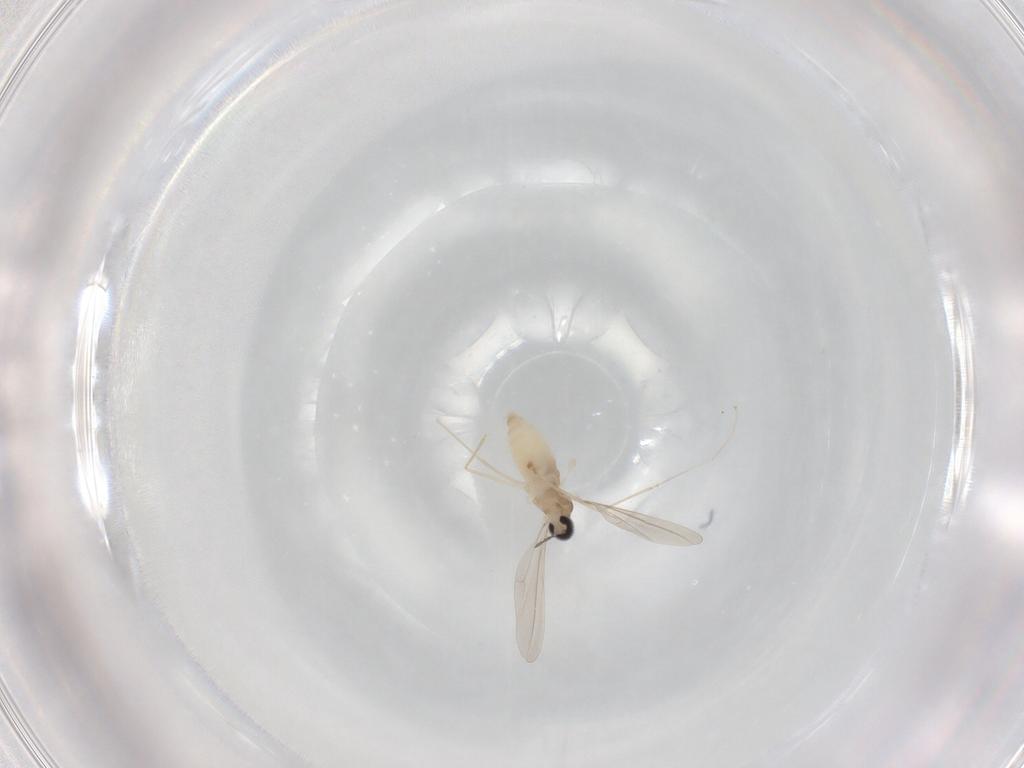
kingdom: Animalia
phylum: Arthropoda
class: Insecta
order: Diptera
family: Cecidomyiidae
